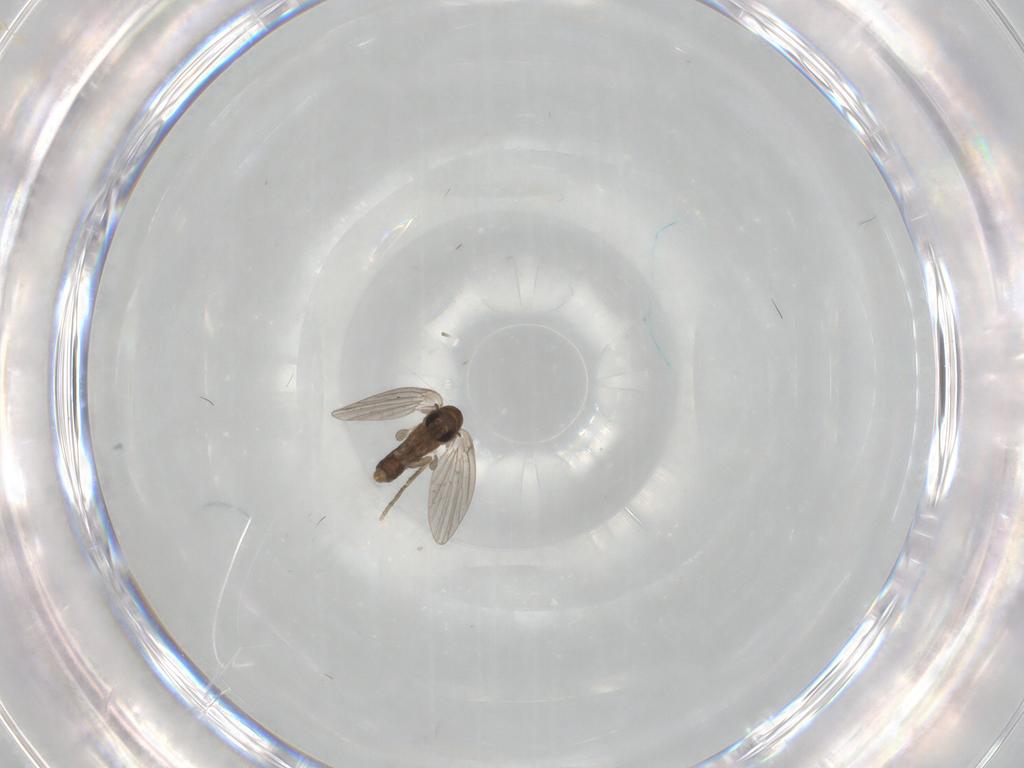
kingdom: Animalia
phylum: Arthropoda
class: Insecta
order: Diptera
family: Psychodidae
